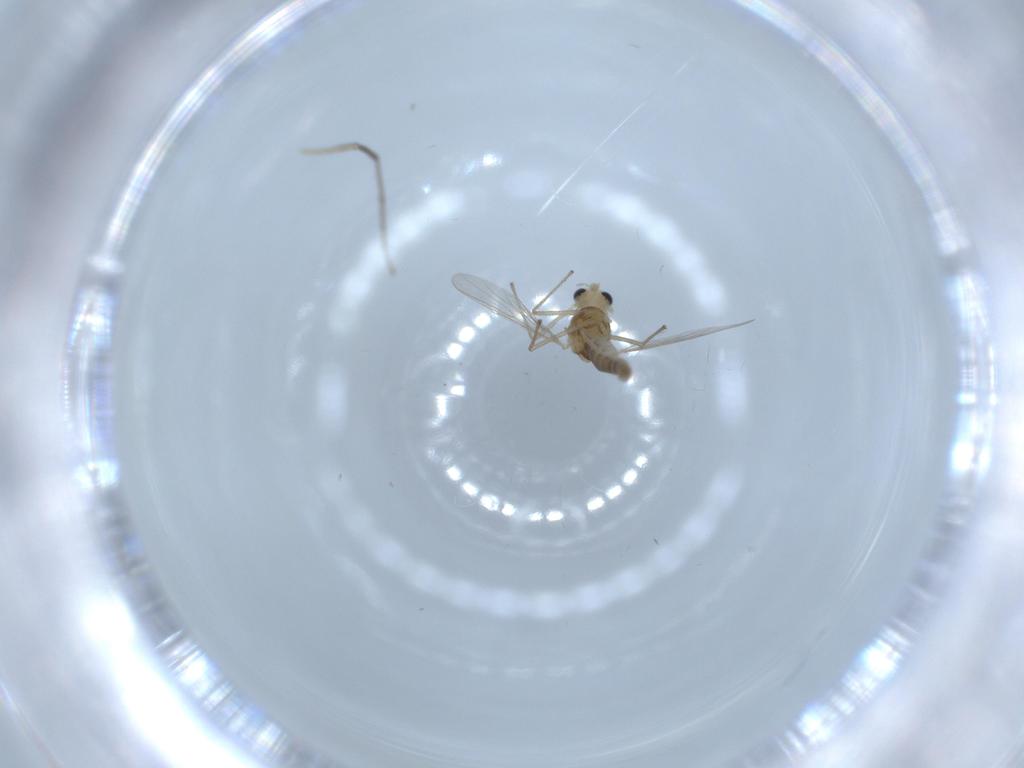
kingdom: Animalia
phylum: Arthropoda
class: Insecta
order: Diptera
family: Chironomidae
